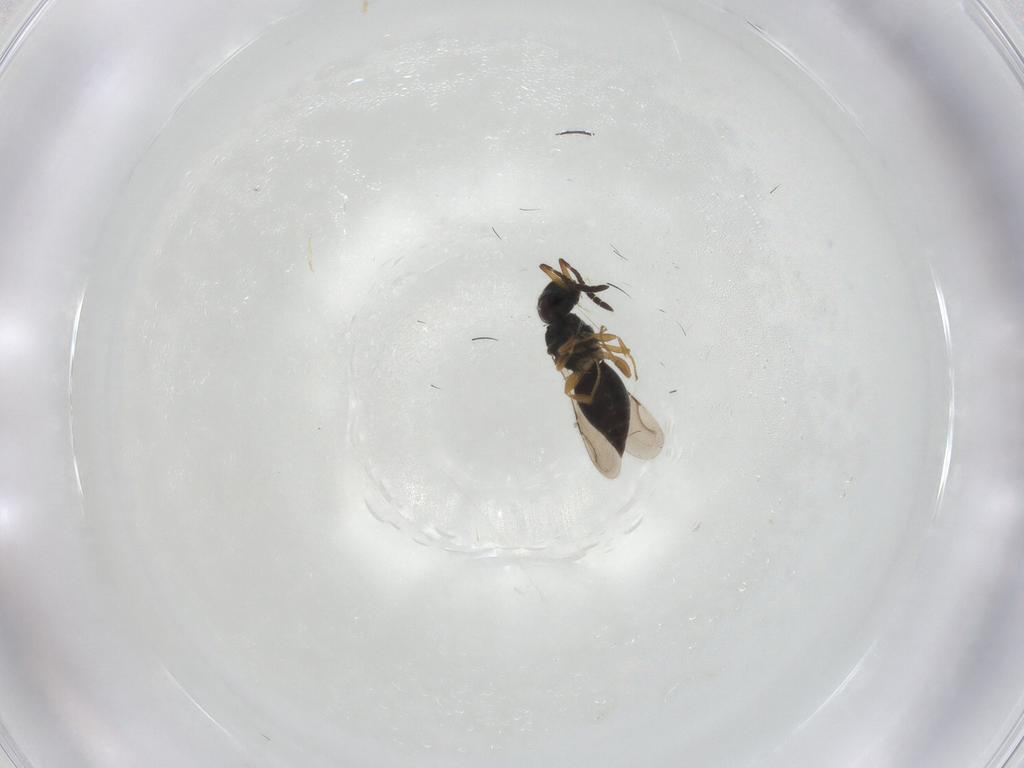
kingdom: Animalia
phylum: Arthropoda
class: Insecta
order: Hymenoptera
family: Ichneumonidae
